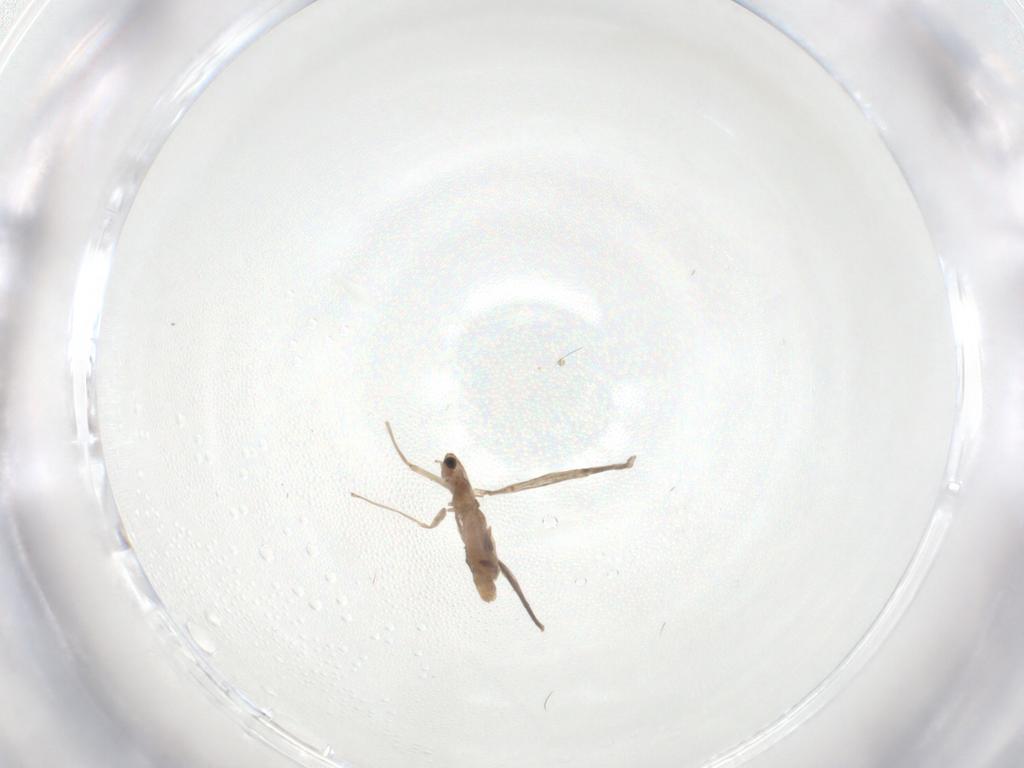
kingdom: Animalia
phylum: Arthropoda
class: Insecta
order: Diptera
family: Chironomidae
